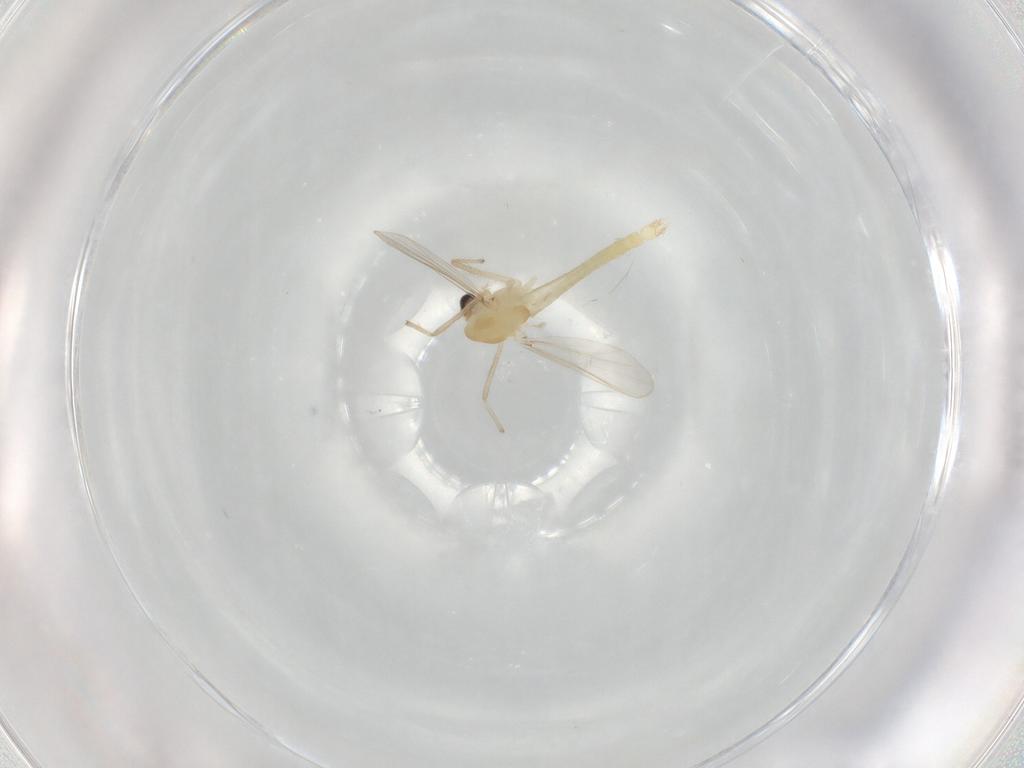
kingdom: Animalia
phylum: Arthropoda
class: Insecta
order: Diptera
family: Chironomidae
